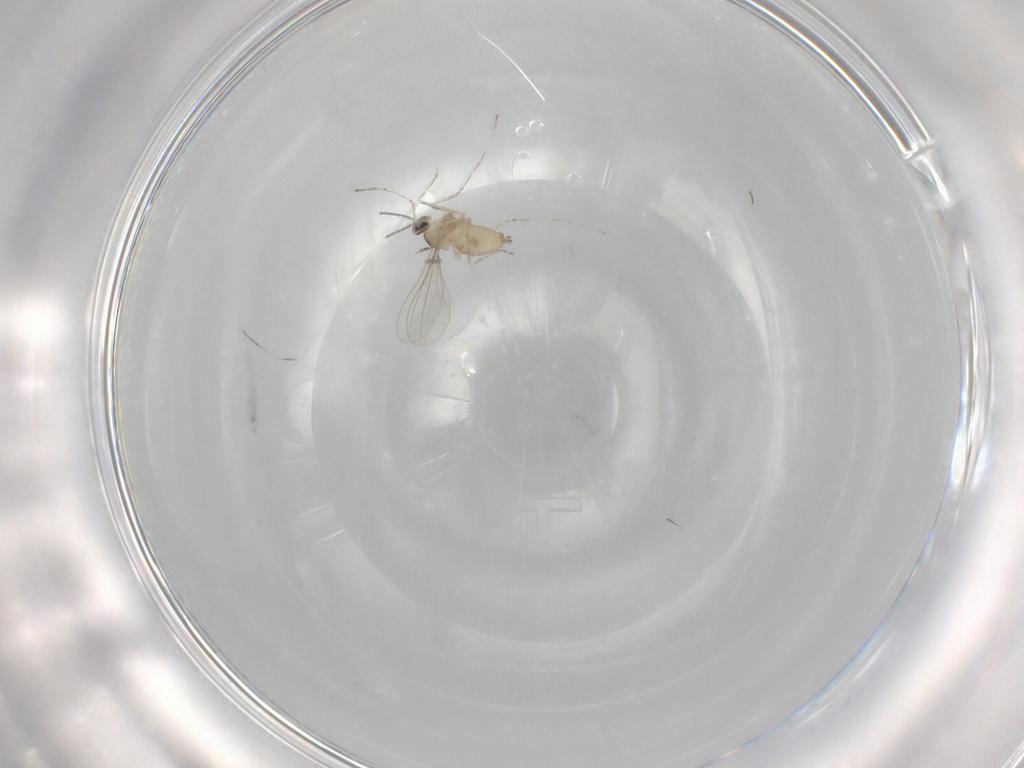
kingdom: Animalia
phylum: Arthropoda
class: Insecta
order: Diptera
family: Cecidomyiidae
